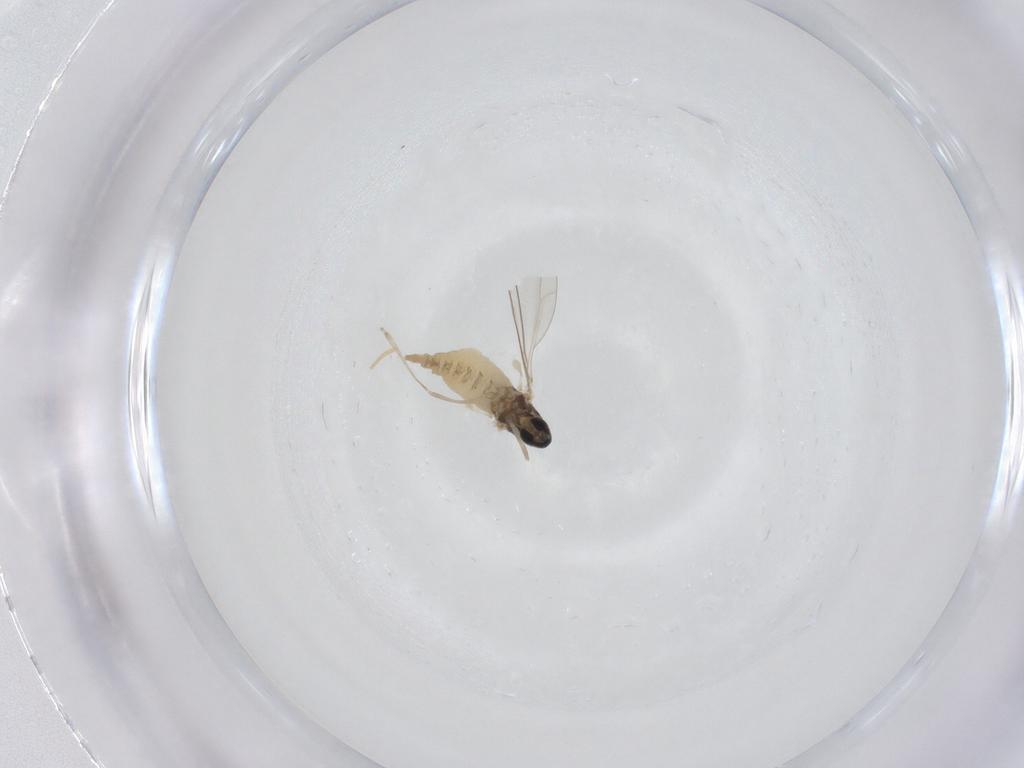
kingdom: Animalia
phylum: Arthropoda
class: Insecta
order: Diptera
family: Cecidomyiidae
